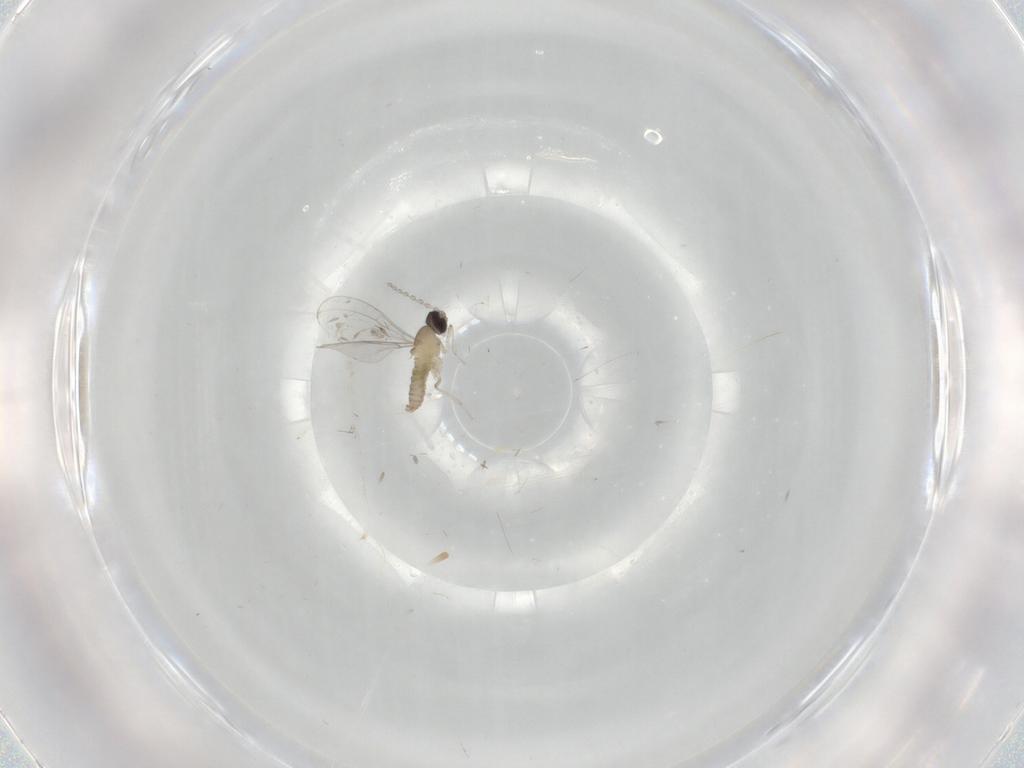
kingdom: Animalia
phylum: Arthropoda
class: Insecta
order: Diptera
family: Cecidomyiidae
